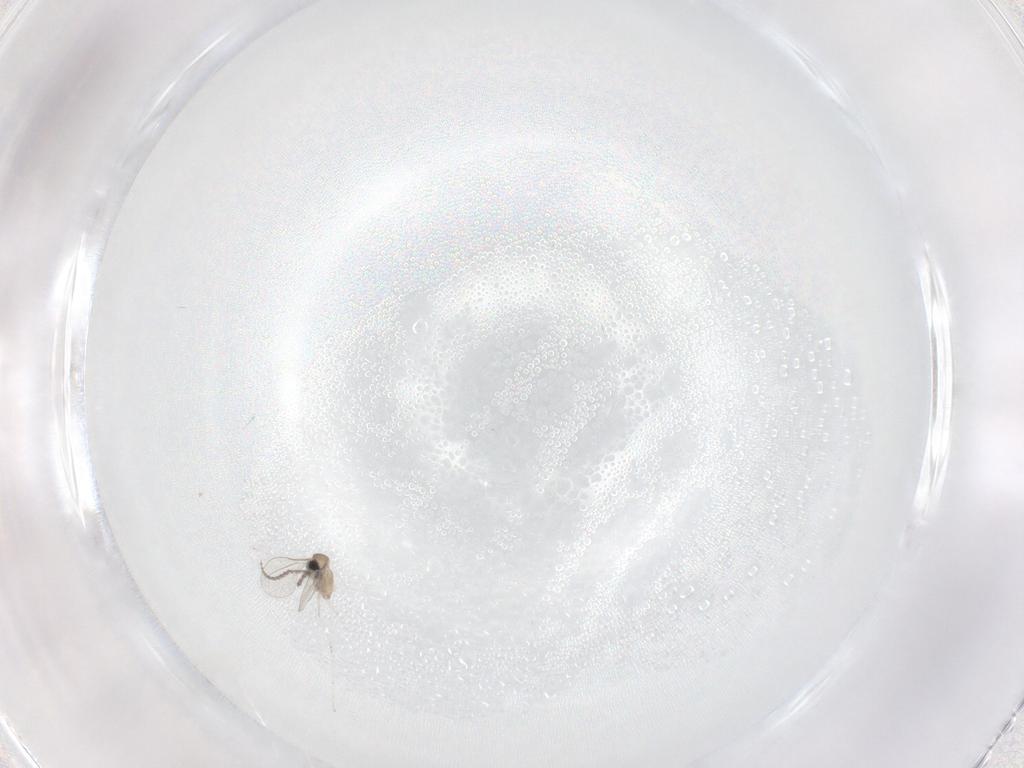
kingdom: Animalia
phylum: Arthropoda
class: Insecta
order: Diptera
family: Cecidomyiidae
